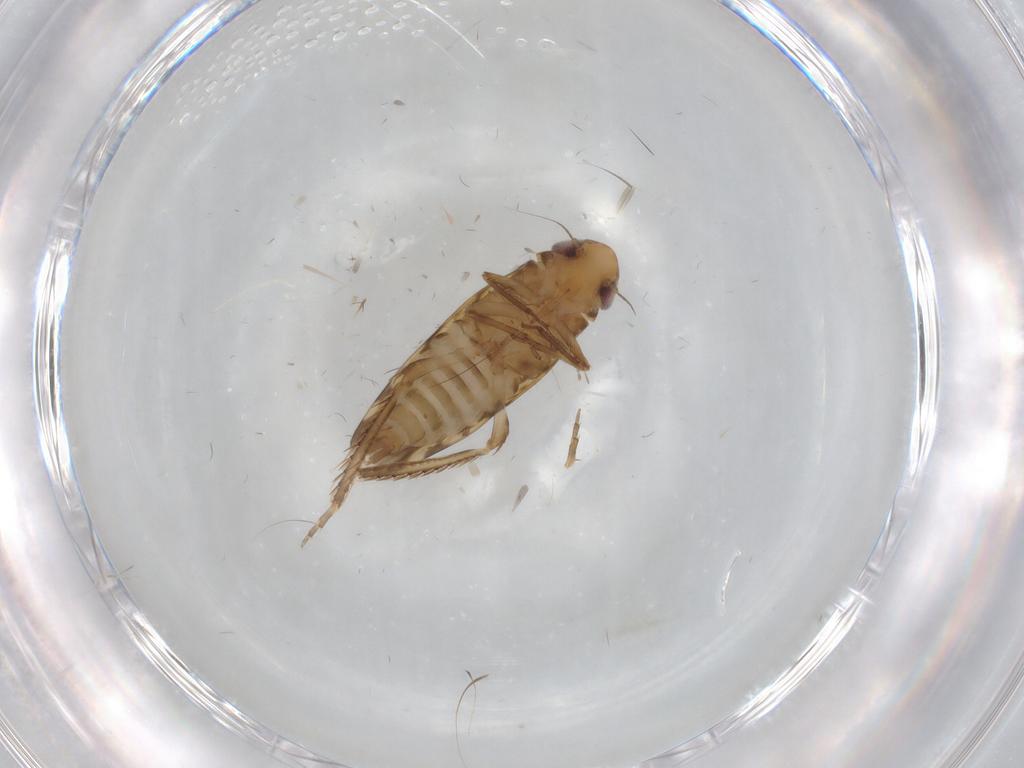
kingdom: Animalia
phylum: Arthropoda
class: Insecta
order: Hemiptera
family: Cicadellidae
